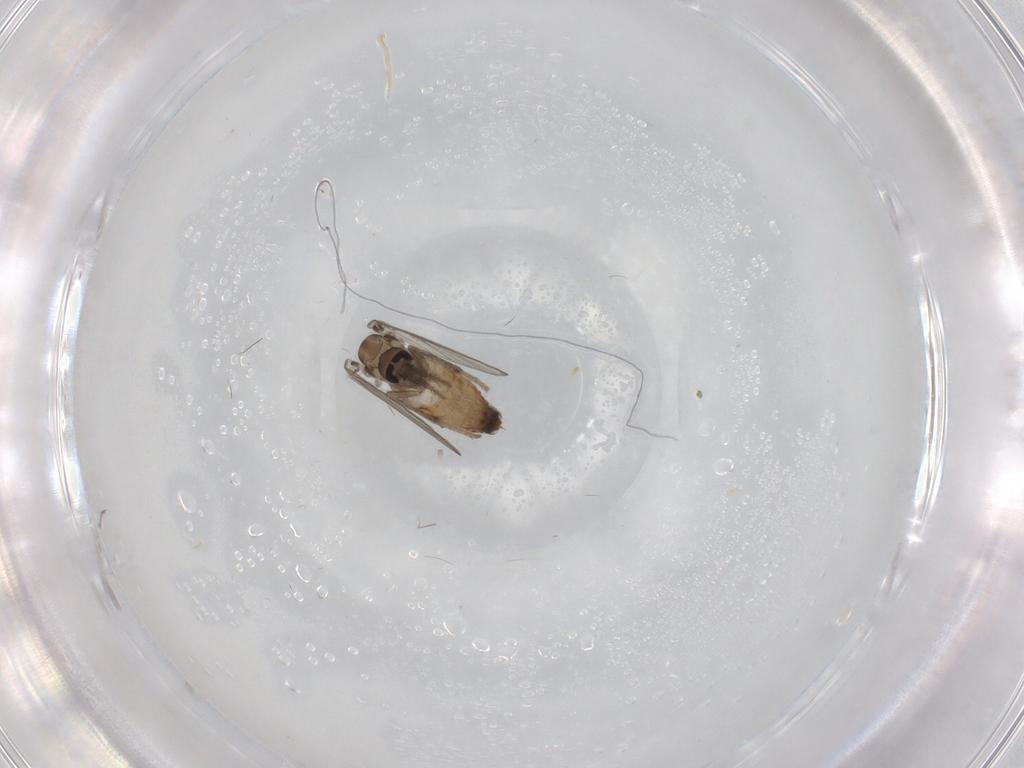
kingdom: Animalia
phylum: Arthropoda
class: Insecta
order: Diptera
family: Psychodidae
